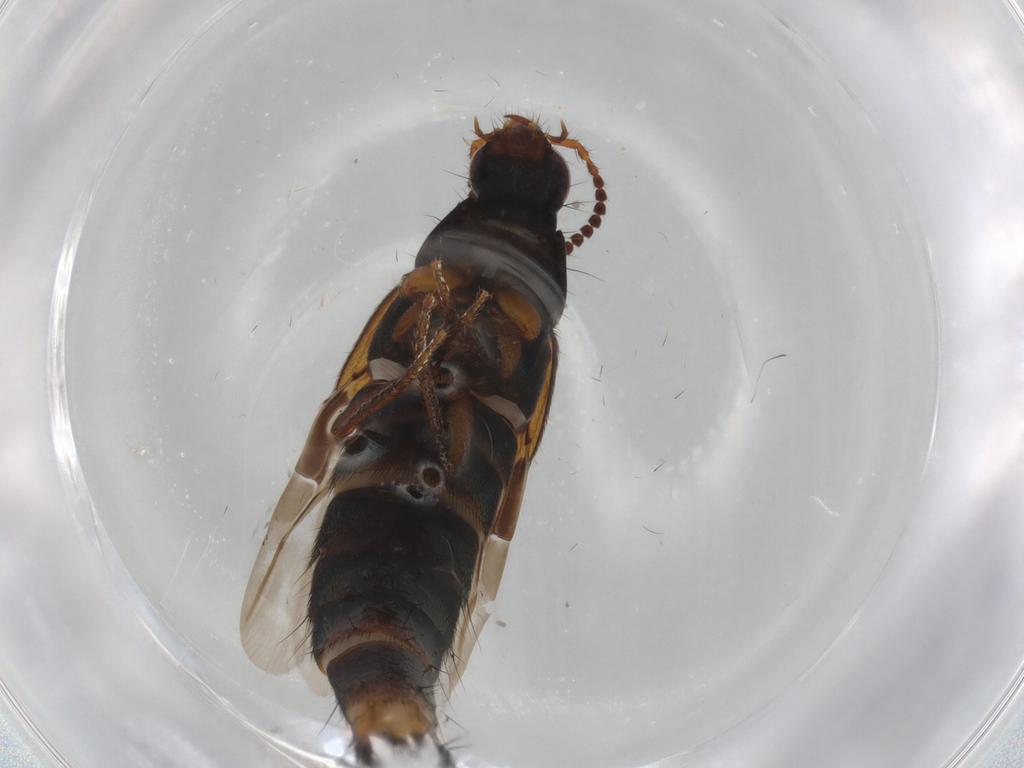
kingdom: Animalia
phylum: Arthropoda
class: Insecta
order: Coleoptera
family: Staphylinidae
